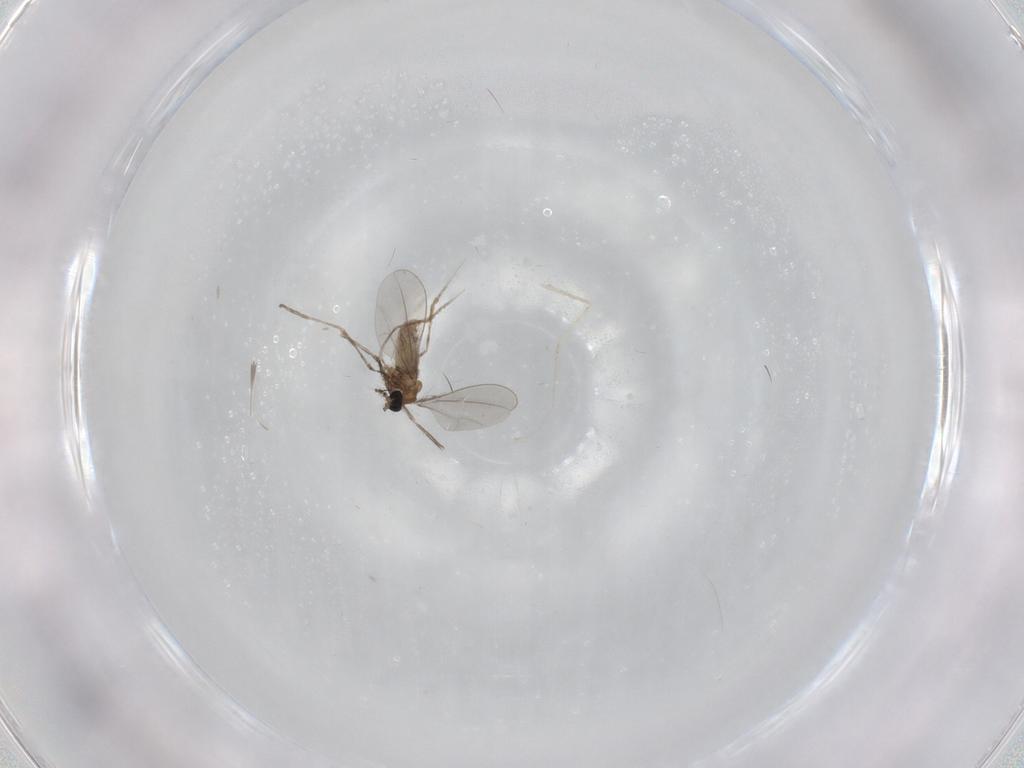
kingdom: Animalia
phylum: Arthropoda
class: Insecta
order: Diptera
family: Cecidomyiidae
